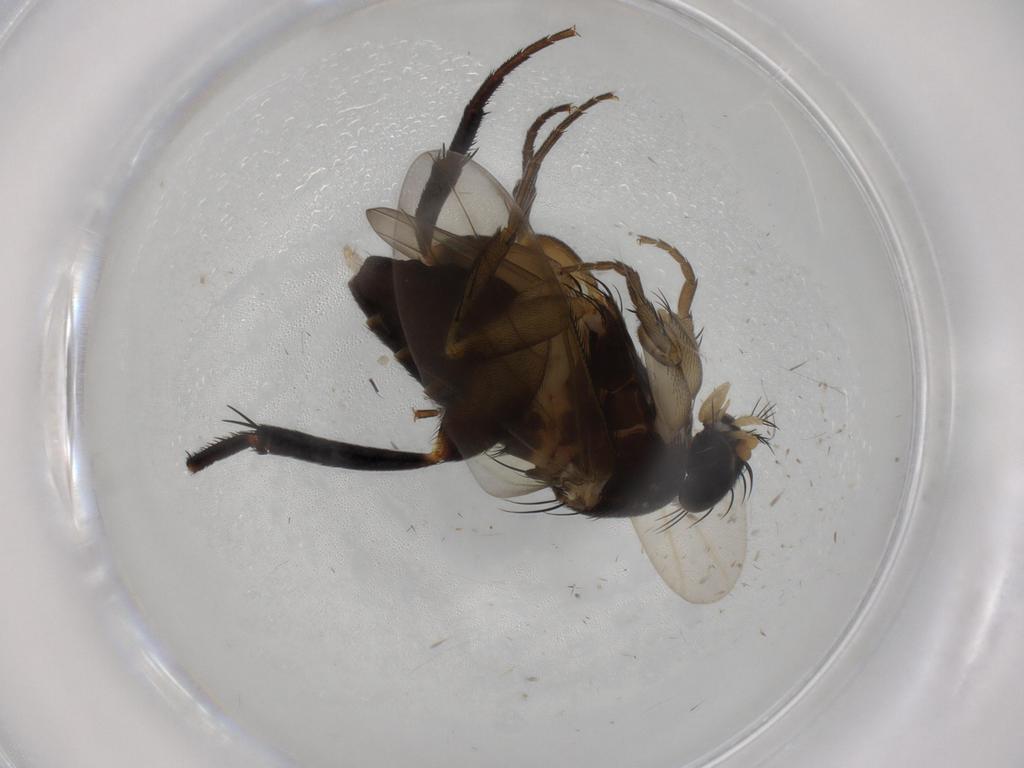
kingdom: Animalia
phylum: Arthropoda
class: Insecta
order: Diptera
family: Phoridae
